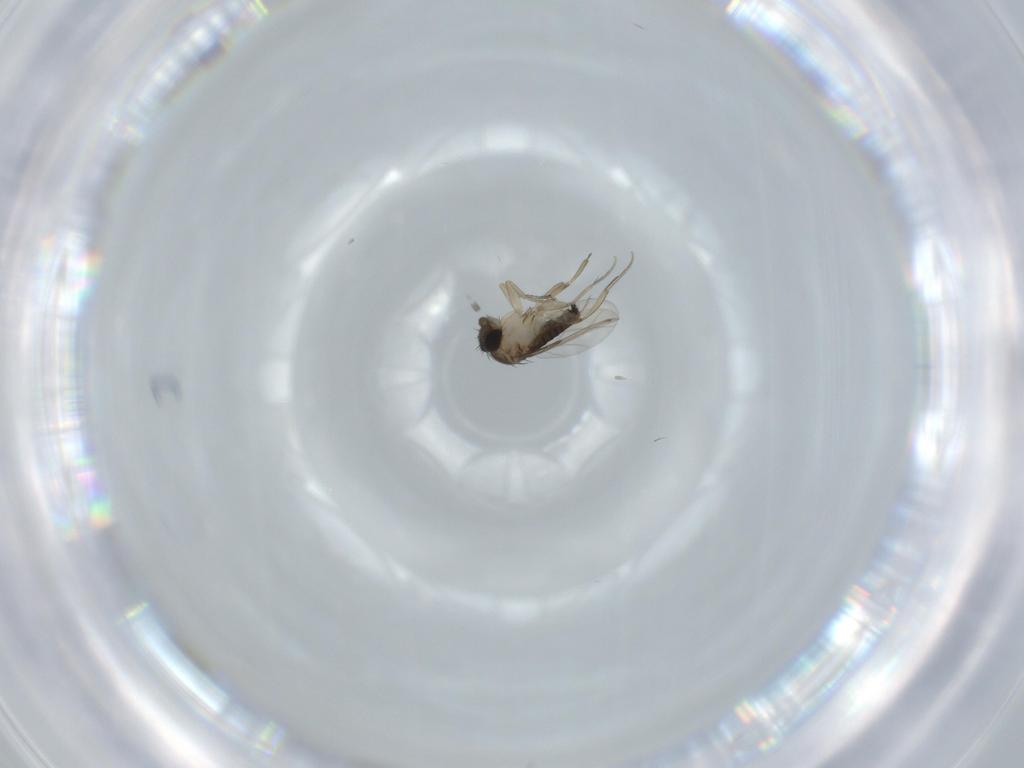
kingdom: Animalia
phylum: Arthropoda
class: Insecta
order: Diptera
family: Phoridae
